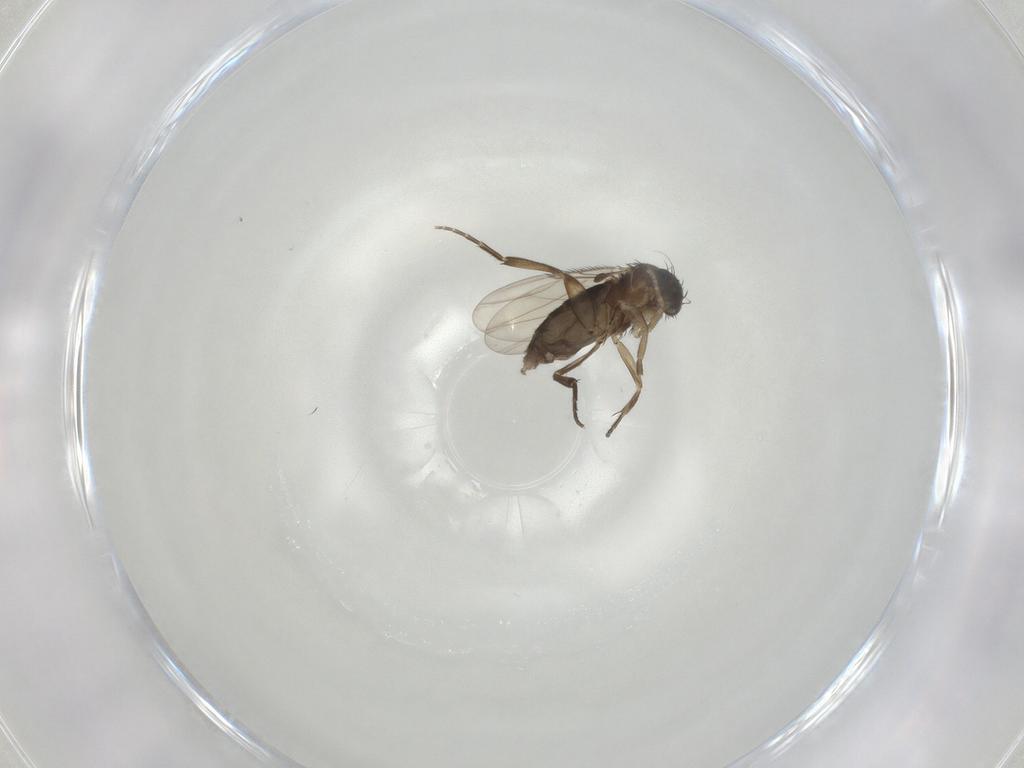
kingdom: Animalia
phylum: Arthropoda
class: Insecta
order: Diptera
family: Phoridae
